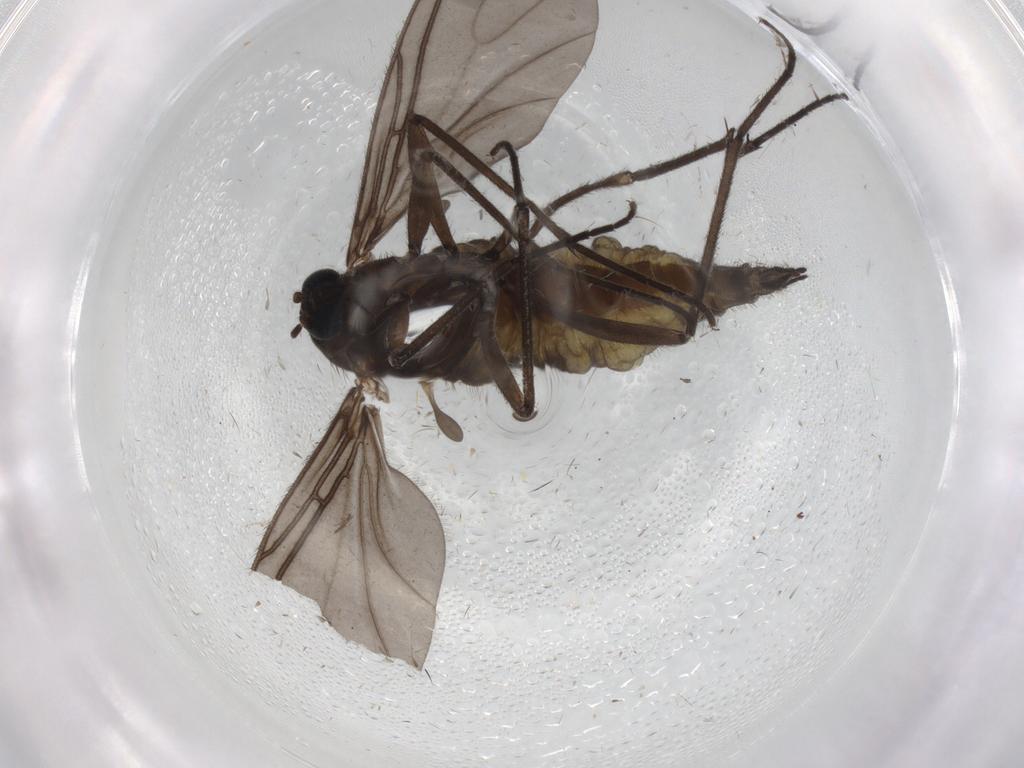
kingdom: Animalia
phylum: Arthropoda
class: Insecta
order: Diptera
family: Sciaridae
